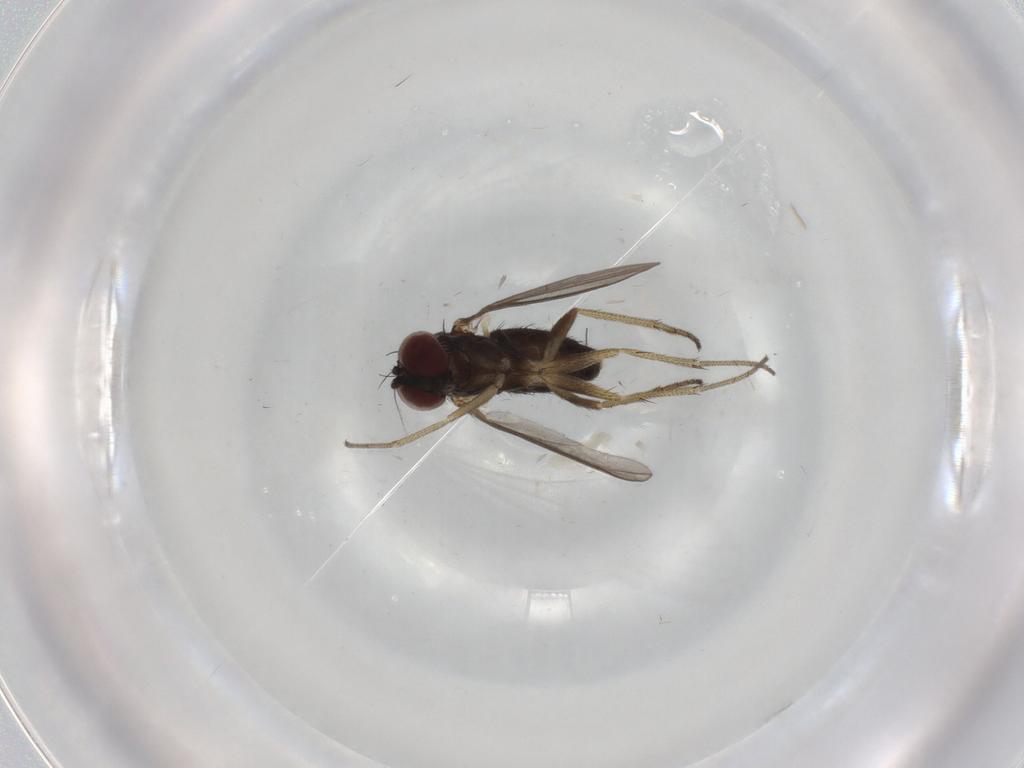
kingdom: Animalia
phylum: Arthropoda
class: Insecta
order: Diptera
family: Dolichopodidae
